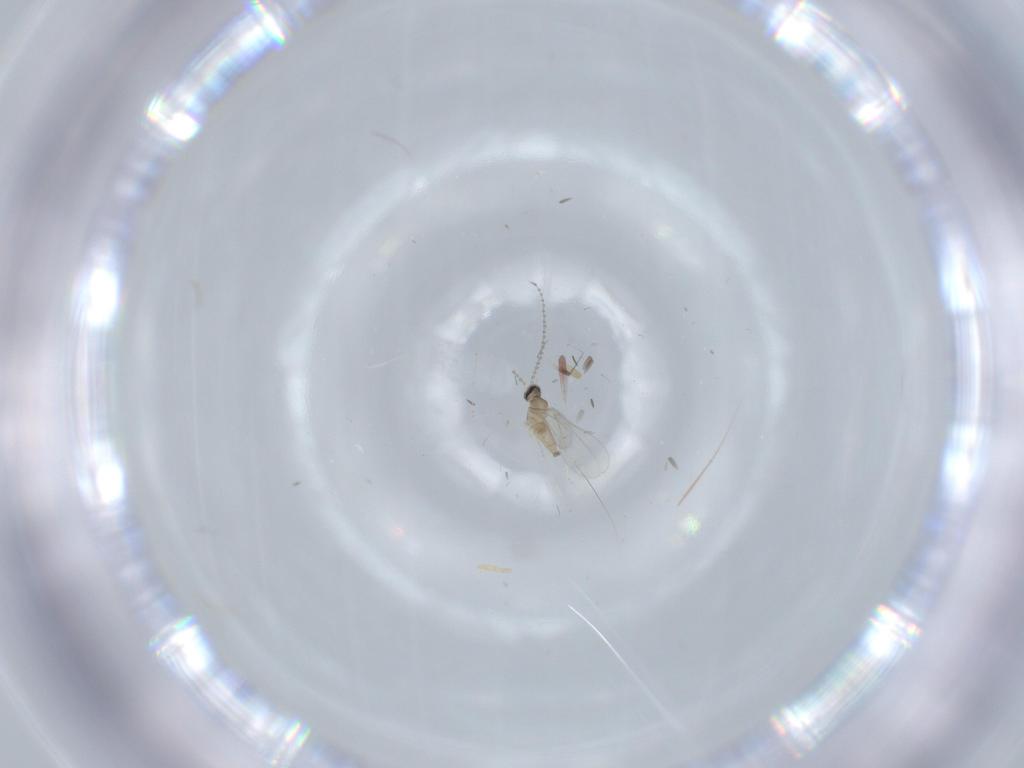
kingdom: Animalia
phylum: Arthropoda
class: Insecta
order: Diptera
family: Cecidomyiidae
